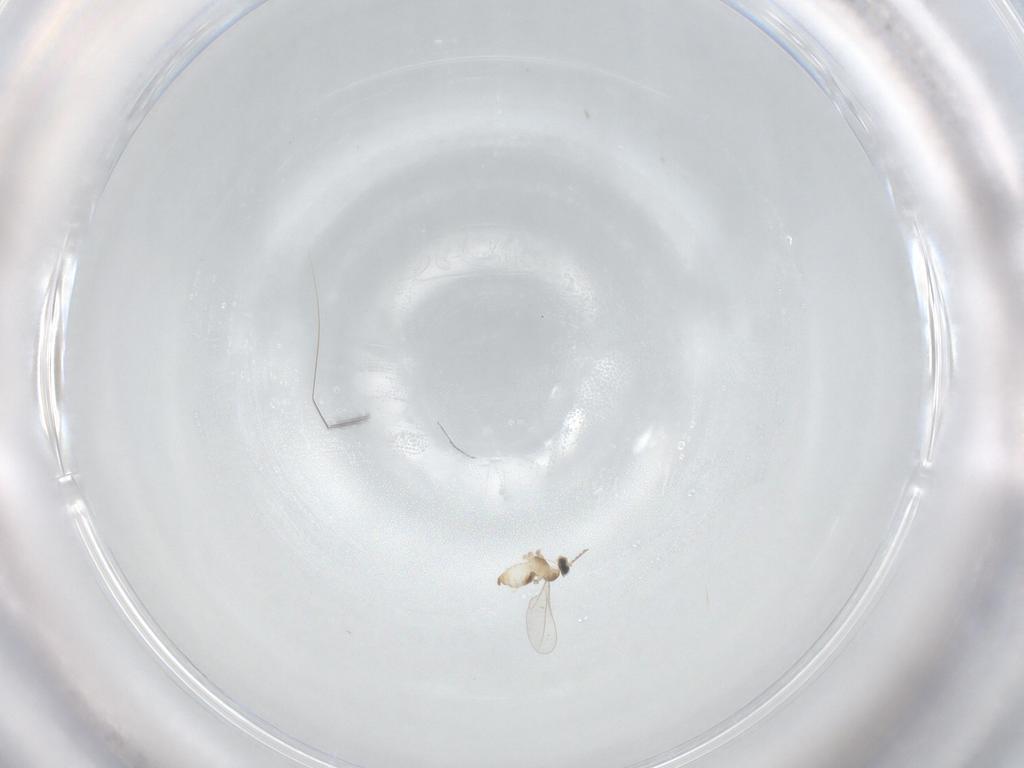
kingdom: Animalia
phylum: Arthropoda
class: Insecta
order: Diptera
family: Cecidomyiidae
